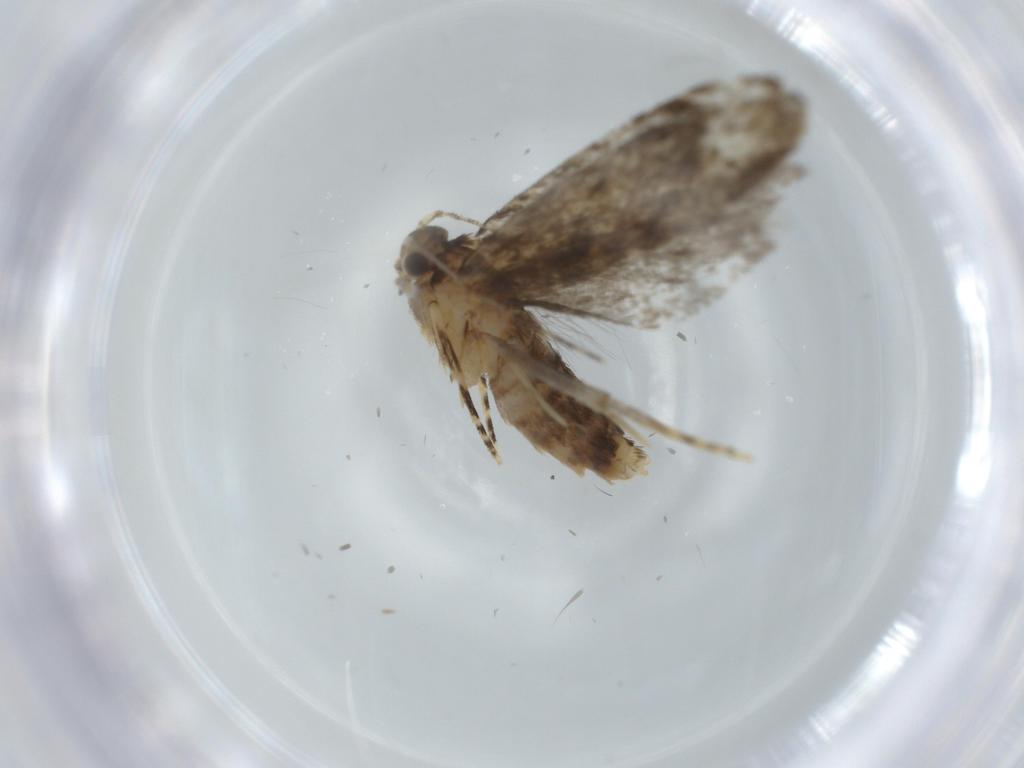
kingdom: Animalia
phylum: Arthropoda
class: Insecta
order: Lepidoptera
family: Tineidae
